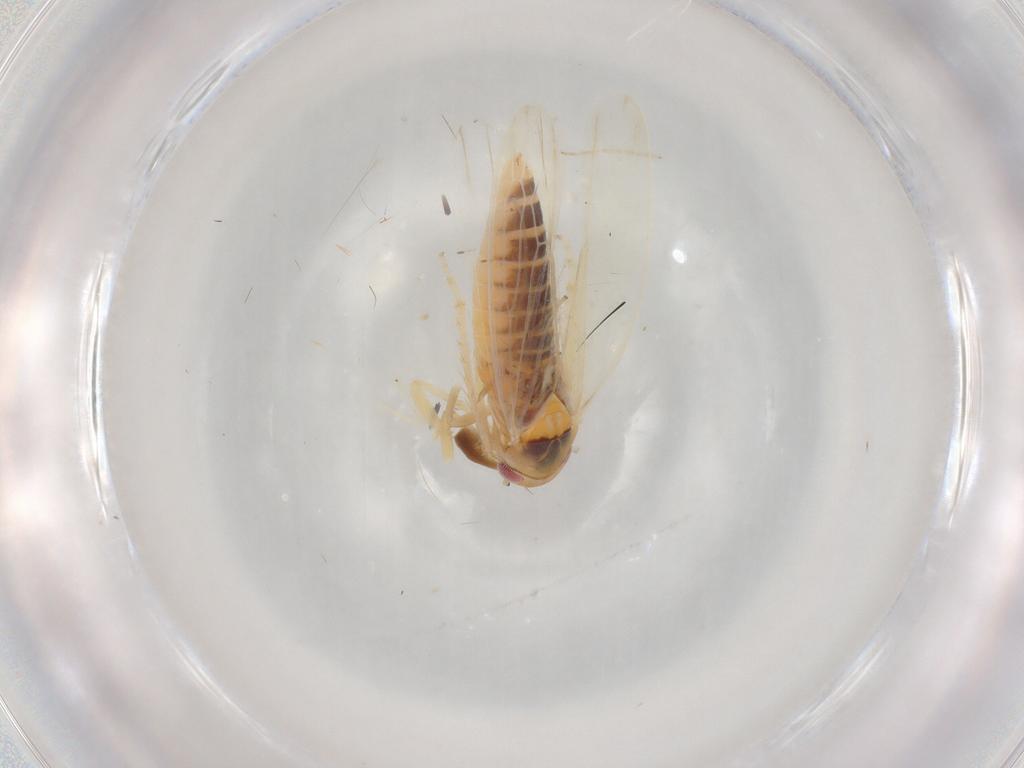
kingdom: Animalia
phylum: Arthropoda
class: Insecta
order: Hemiptera
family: Cicadellidae
